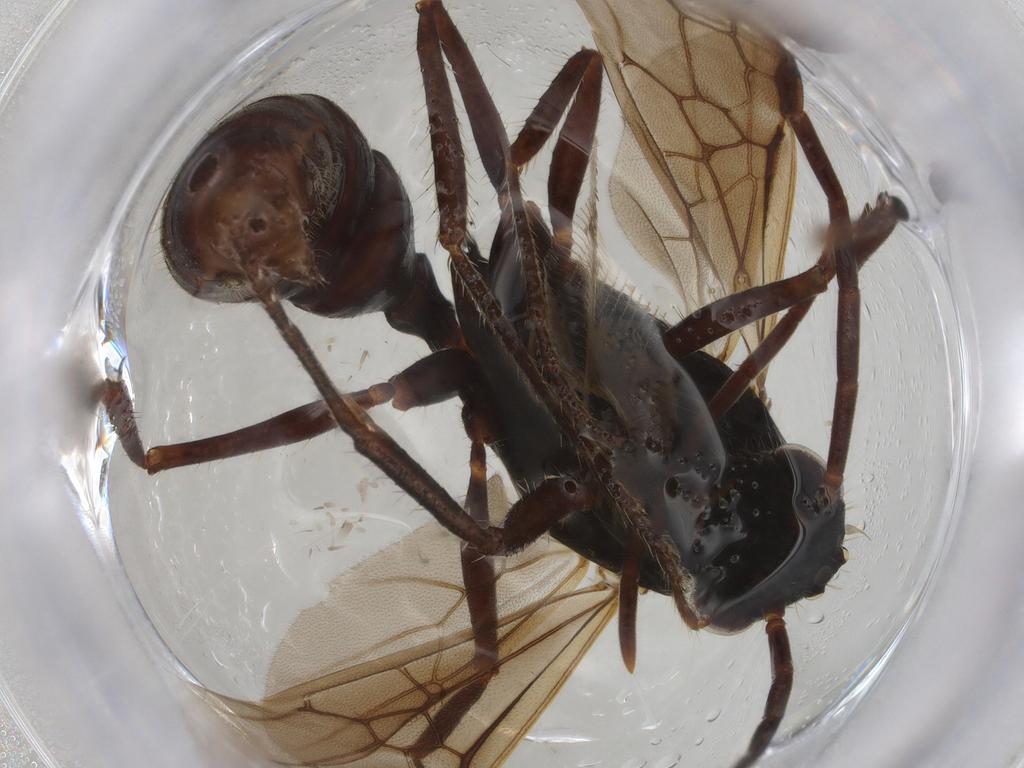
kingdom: Animalia
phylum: Arthropoda
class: Insecta
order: Hymenoptera
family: Formicidae
